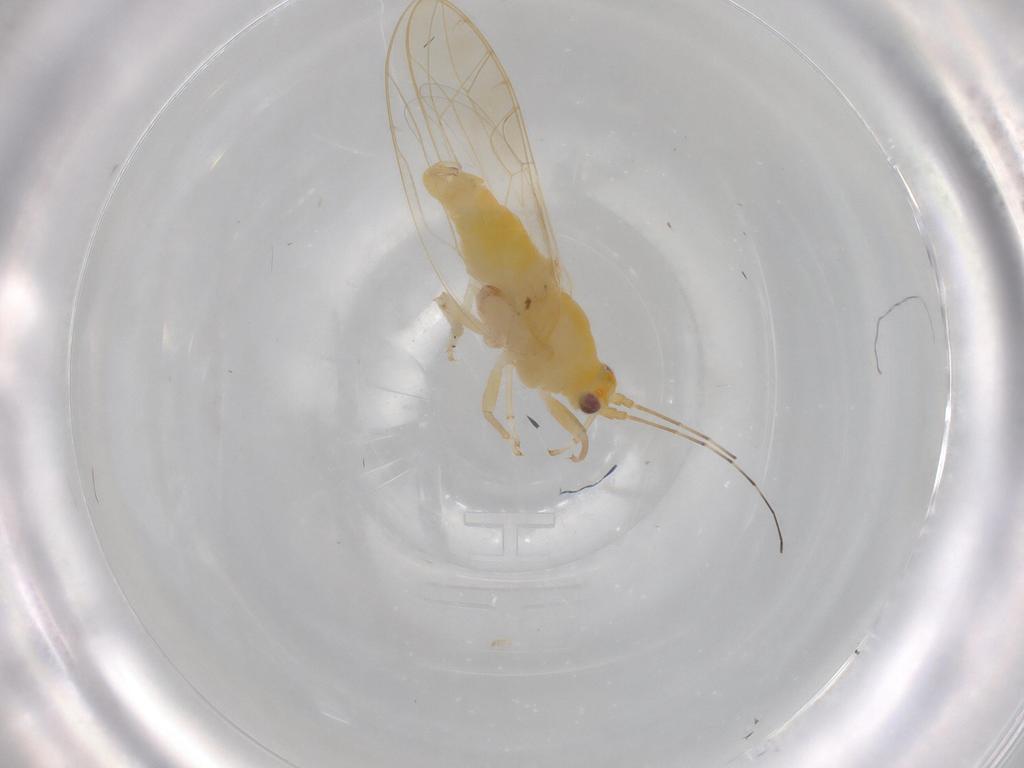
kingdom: Animalia
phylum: Arthropoda
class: Insecta
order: Hemiptera
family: Carsidaridae
